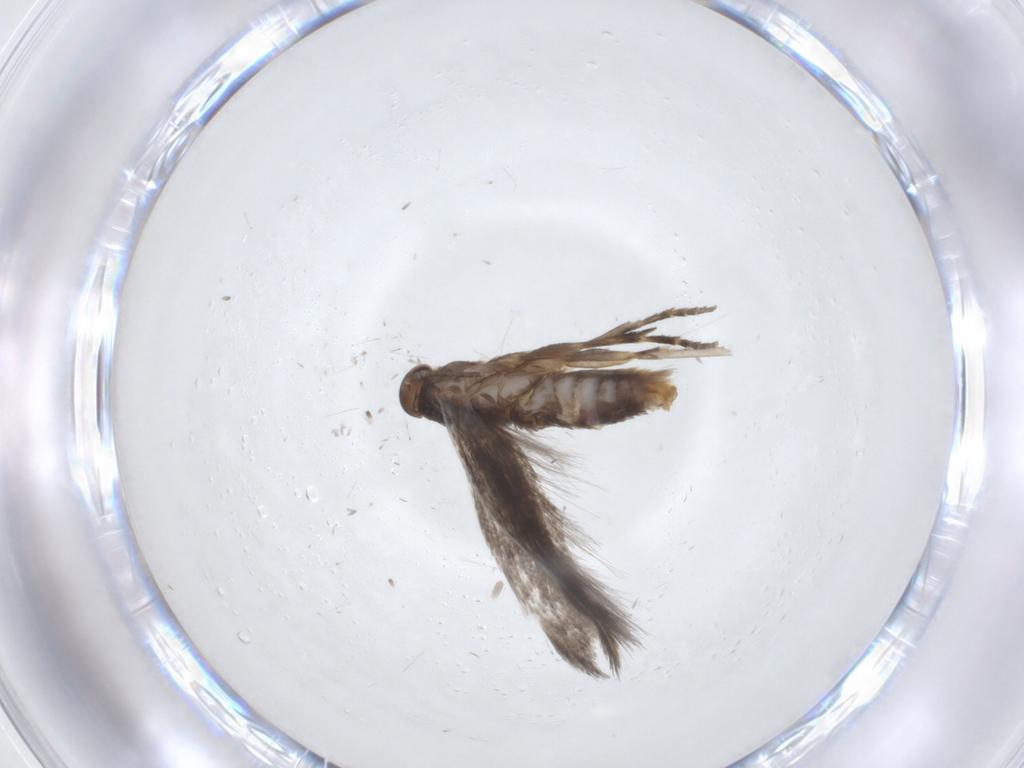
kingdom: Animalia
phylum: Arthropoda
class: Insecta
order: Lepidoptera
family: Elachistidae
